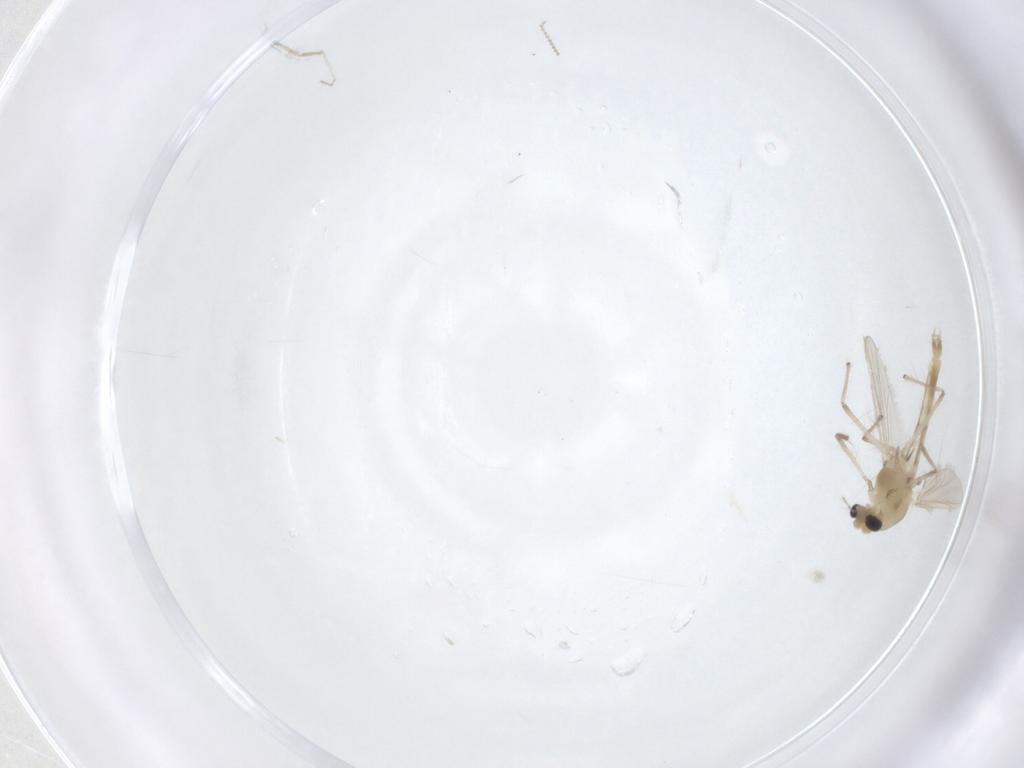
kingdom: Animalia
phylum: Arthropoda
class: Insecta
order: Diptera
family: Chironomidae
